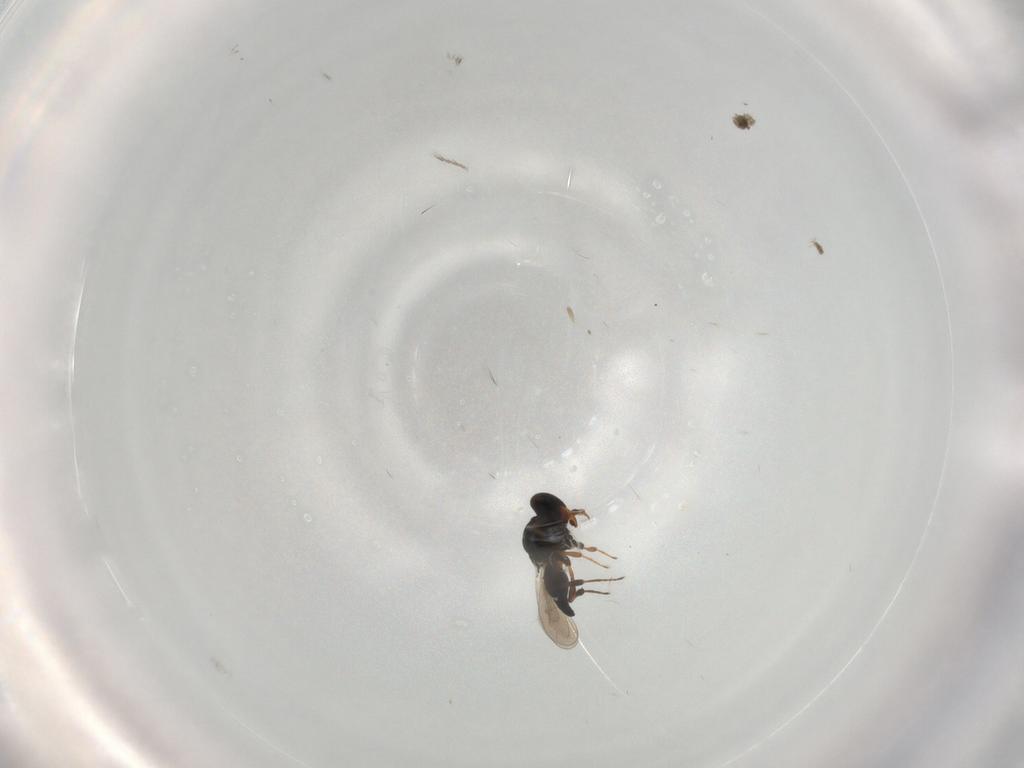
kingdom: Animalia
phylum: Arthropoda
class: Insecta
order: Hymenoptera
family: Platygastridae
